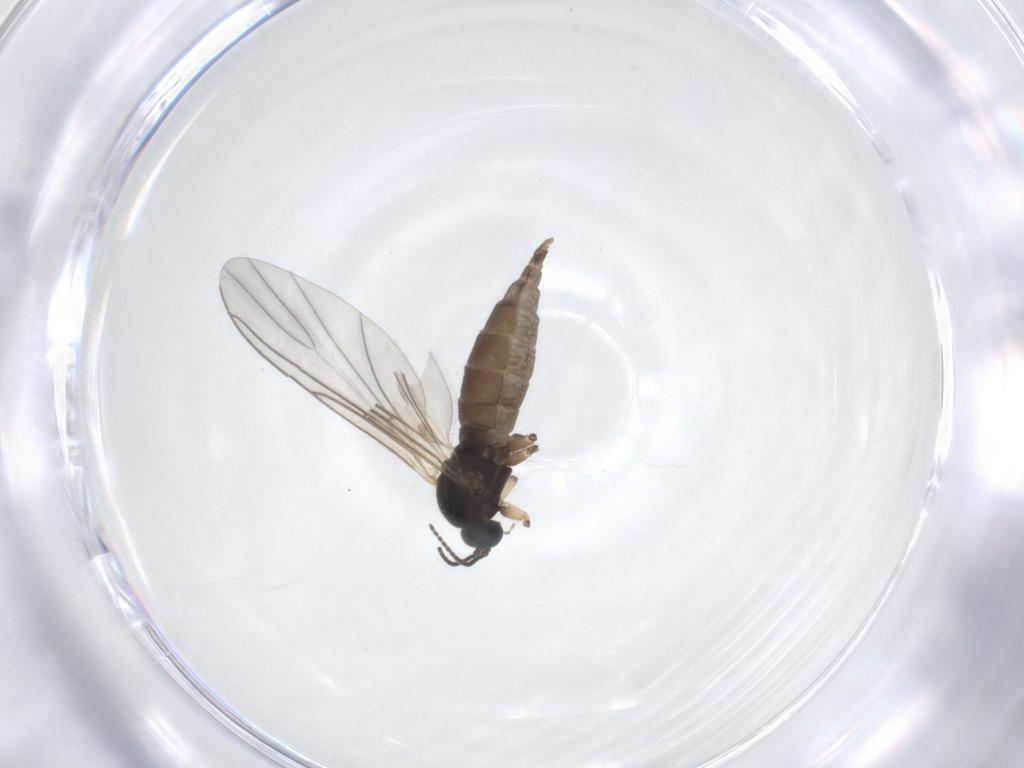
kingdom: Animalia
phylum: Arthropoda
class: Insecta
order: Diptera
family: Sciaridae
